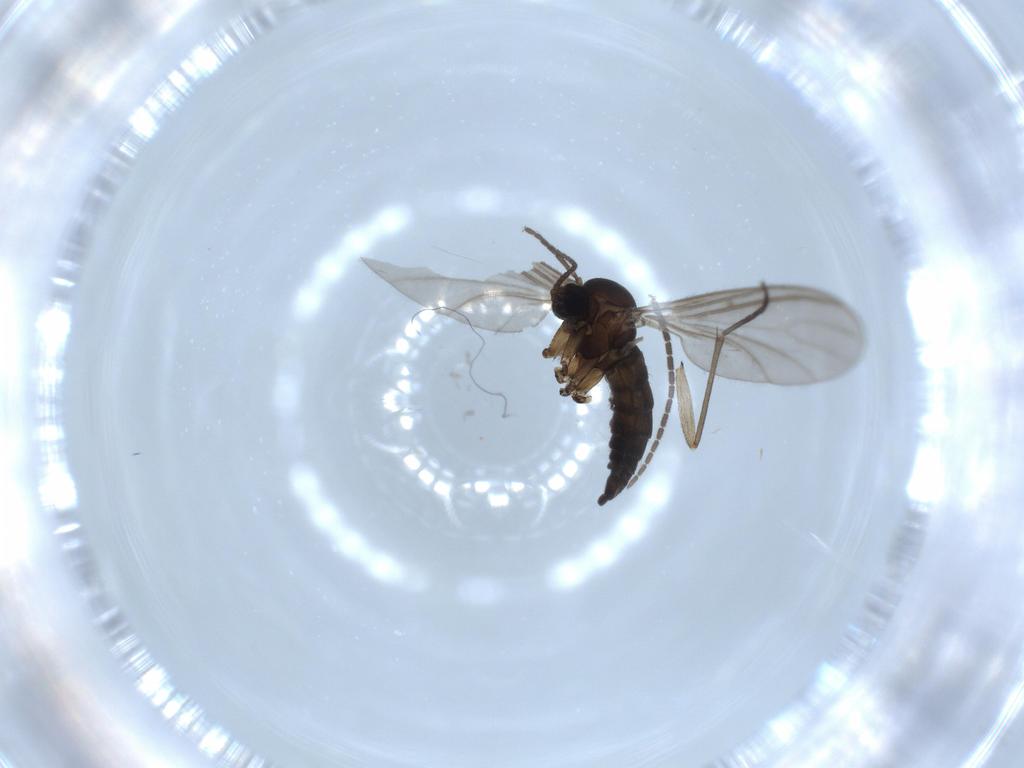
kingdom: Animalia
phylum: Arthropoda
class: Insecta
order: Diptera
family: Sciaridae
